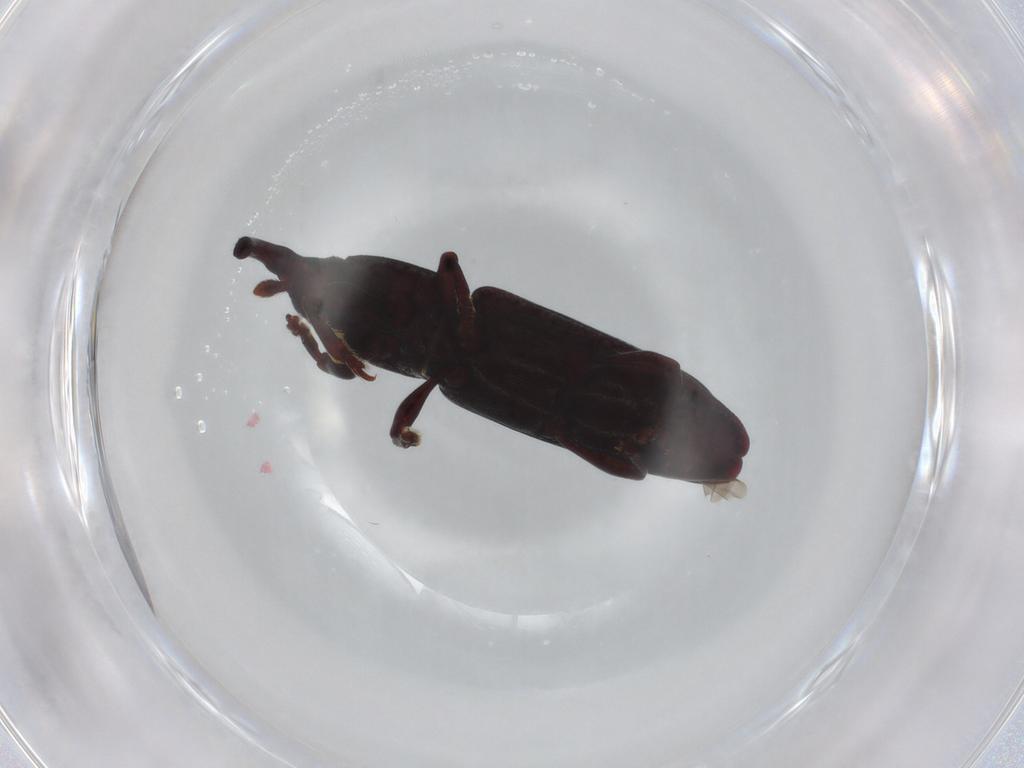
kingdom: Animalia
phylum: Arthropoda
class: Insecta
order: Coleoptera
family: Curculionidae
